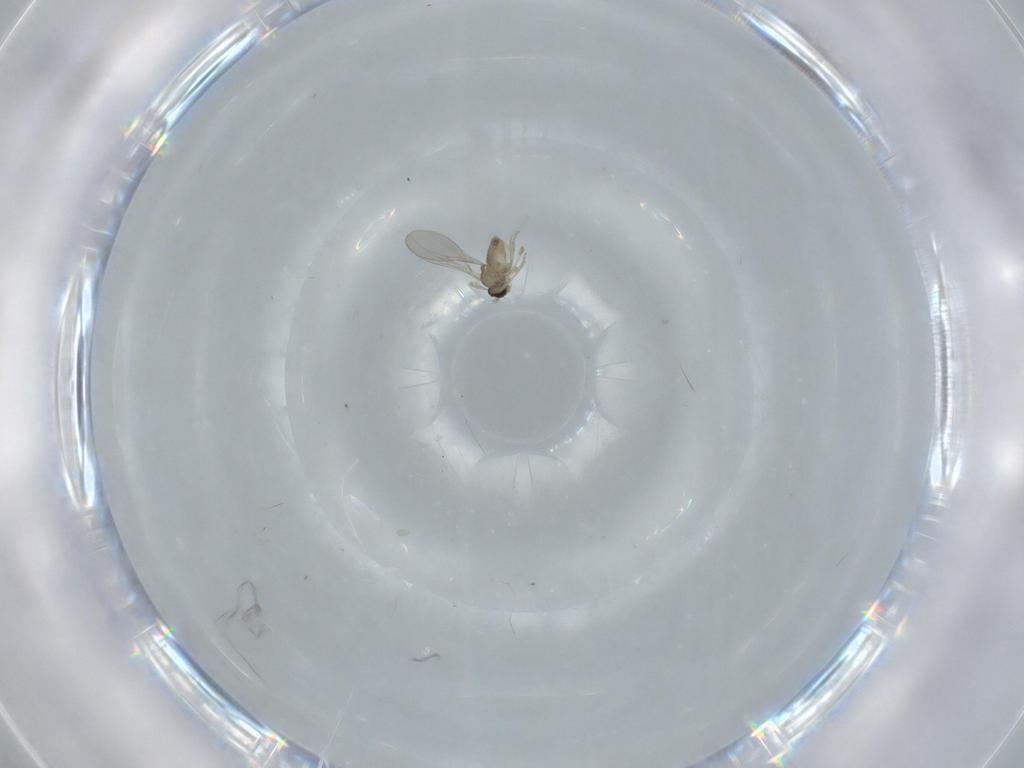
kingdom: Animalia
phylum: Arthropoda
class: Insecta
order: Diptera
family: Cecidomyiidae
